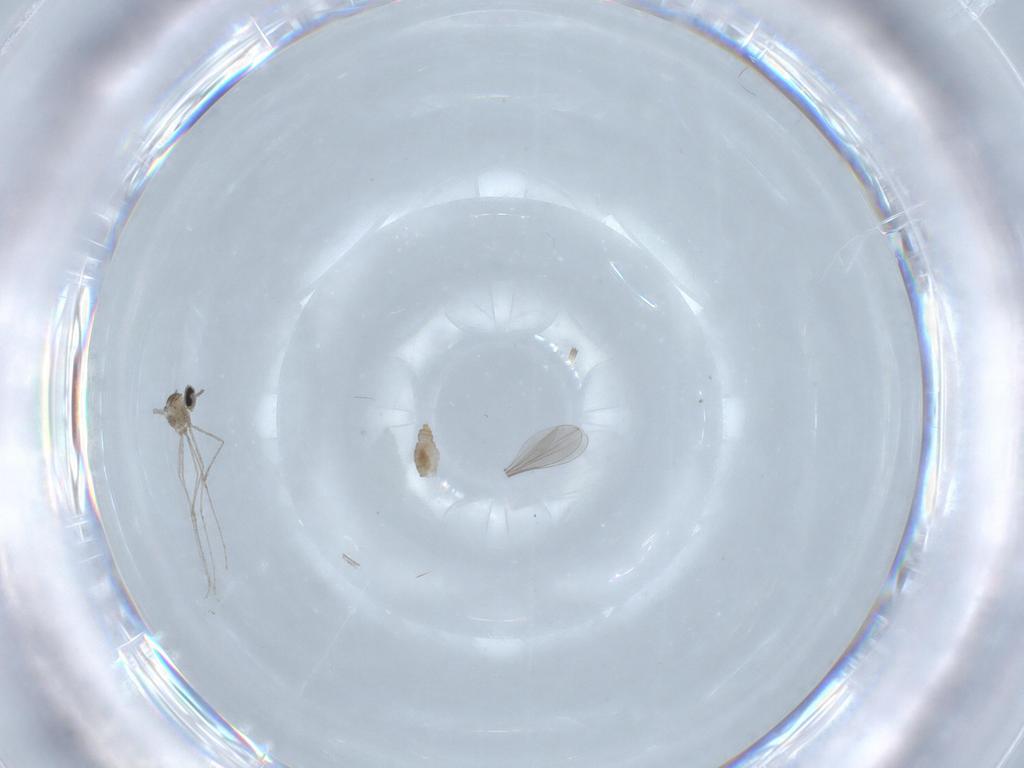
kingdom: Animalia
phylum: Arthropoda
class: Insecta
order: Diptera
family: Cecidomyiidae
